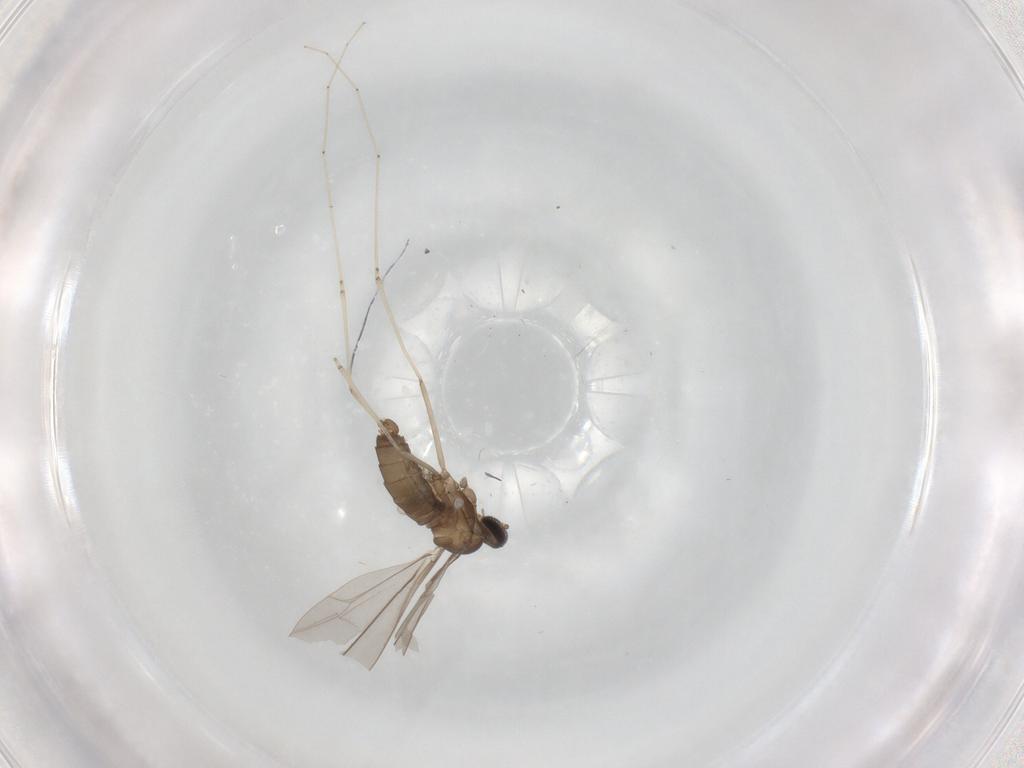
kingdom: Animalia
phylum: Arthropoda
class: Insecta
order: Diptera
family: Cecidomyiidae
